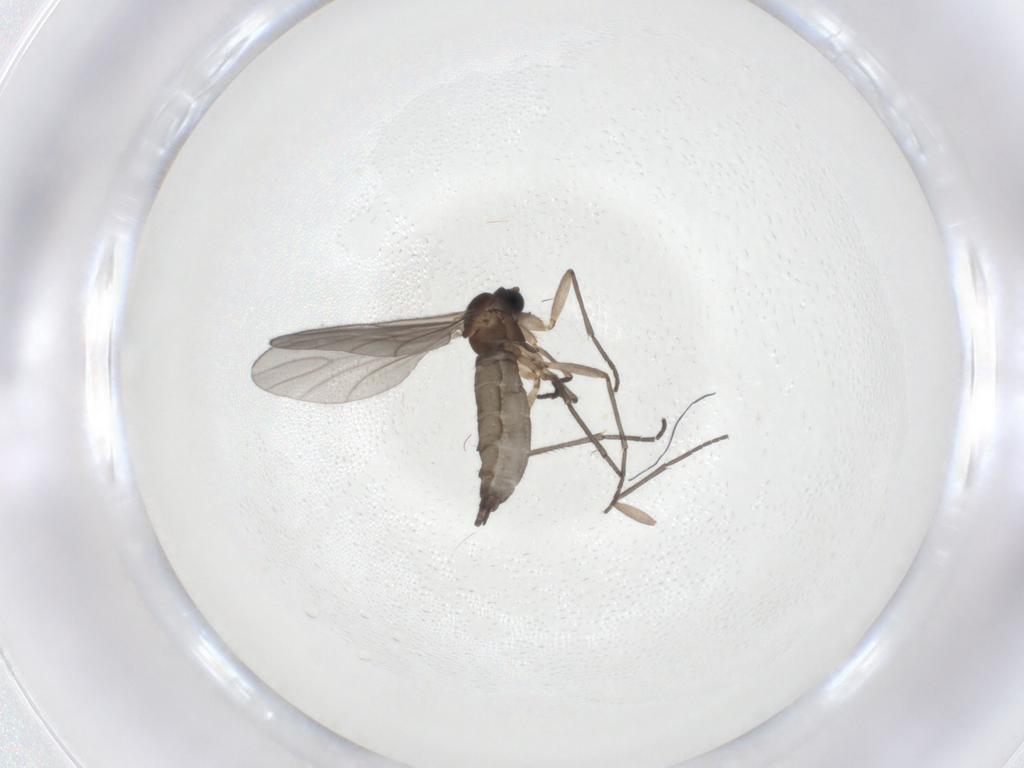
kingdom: Animalia
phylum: Arthropoda
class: Insecta
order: Diptera
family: Sciaridae
